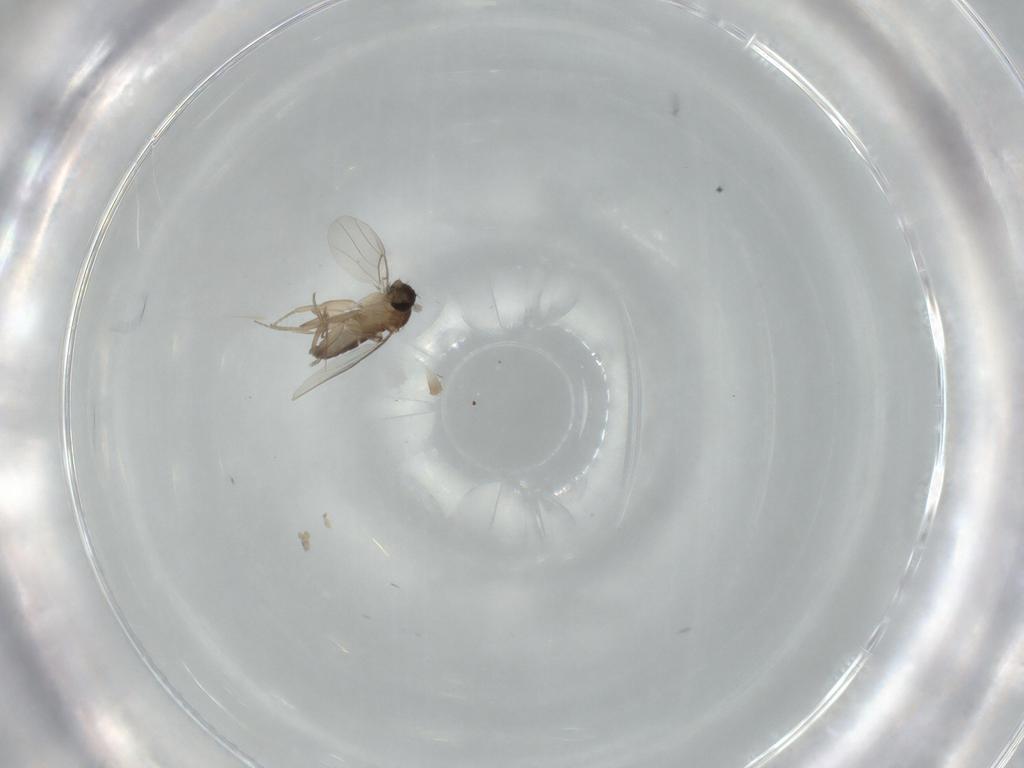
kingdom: Animalia
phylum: Arthropoda
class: Insecta
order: Diptera
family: Phoridae
